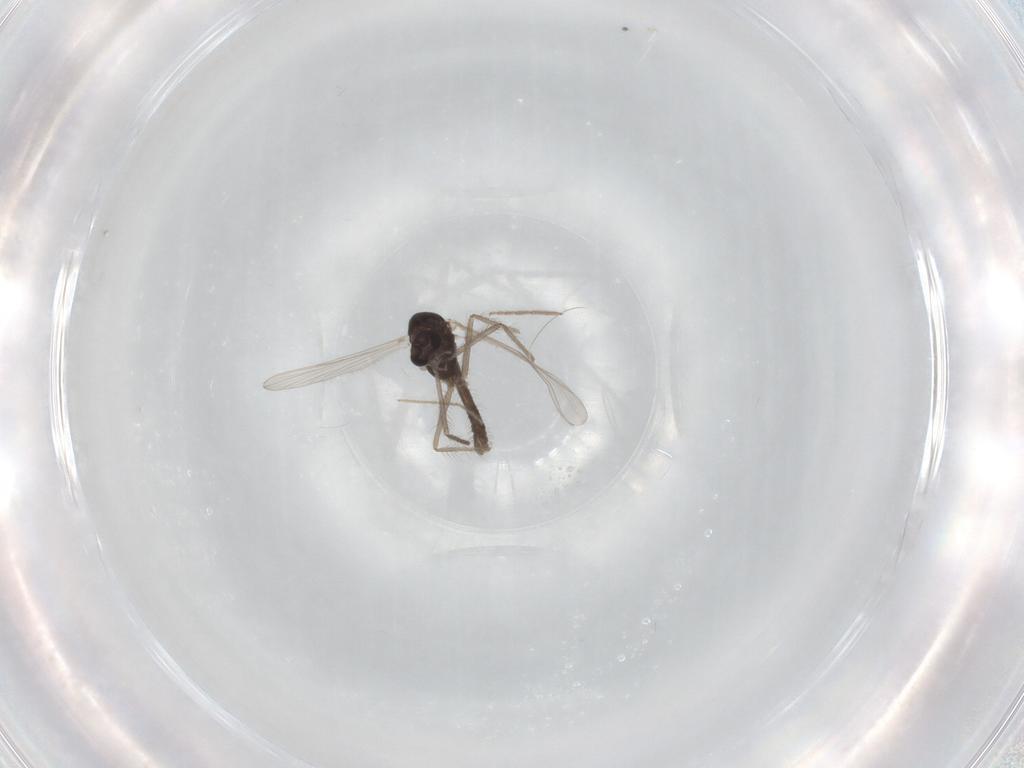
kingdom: Animalia
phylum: Arthropoda
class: Insecta
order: Diptera
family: Chironomidae
